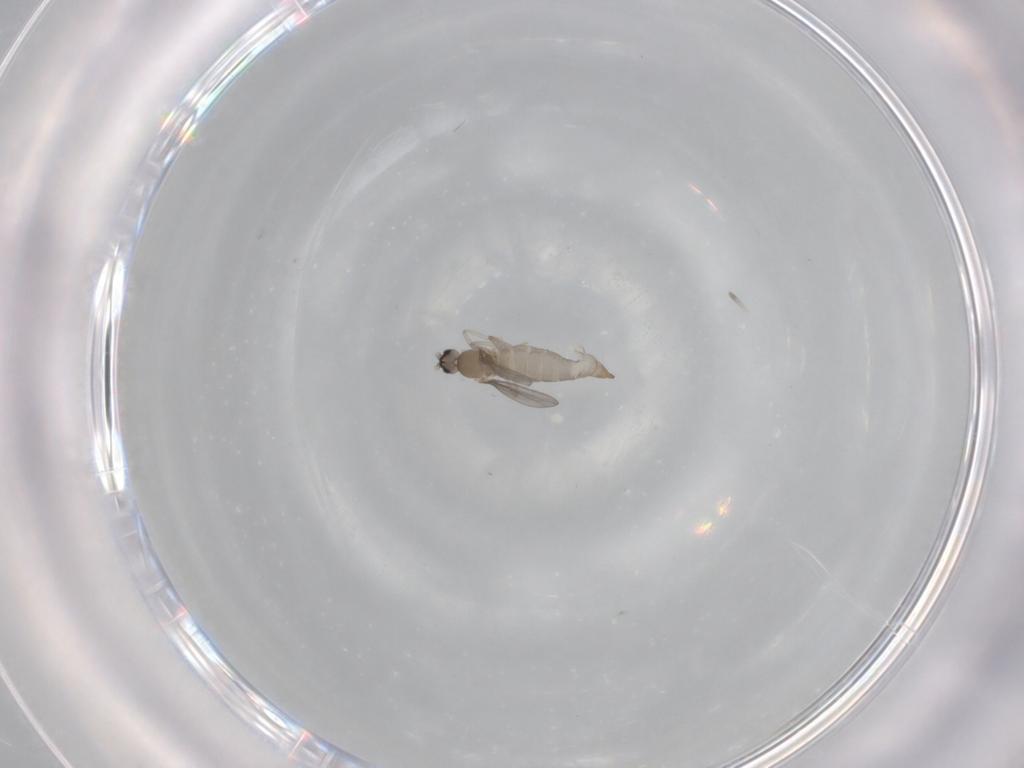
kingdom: Animalia
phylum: Arthropoda
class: Insecta
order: Diptera
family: Cecidomyiidae
